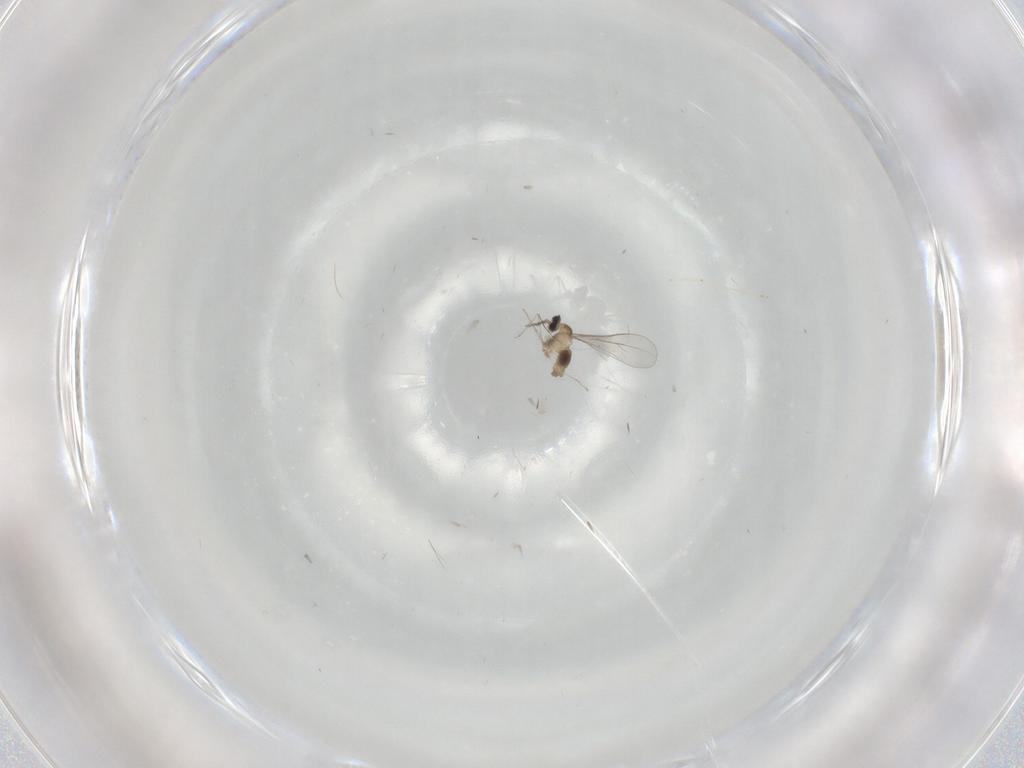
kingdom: Animalia
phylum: Arthropoda
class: Insecta
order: Diptera
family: Cecidomyiidae
